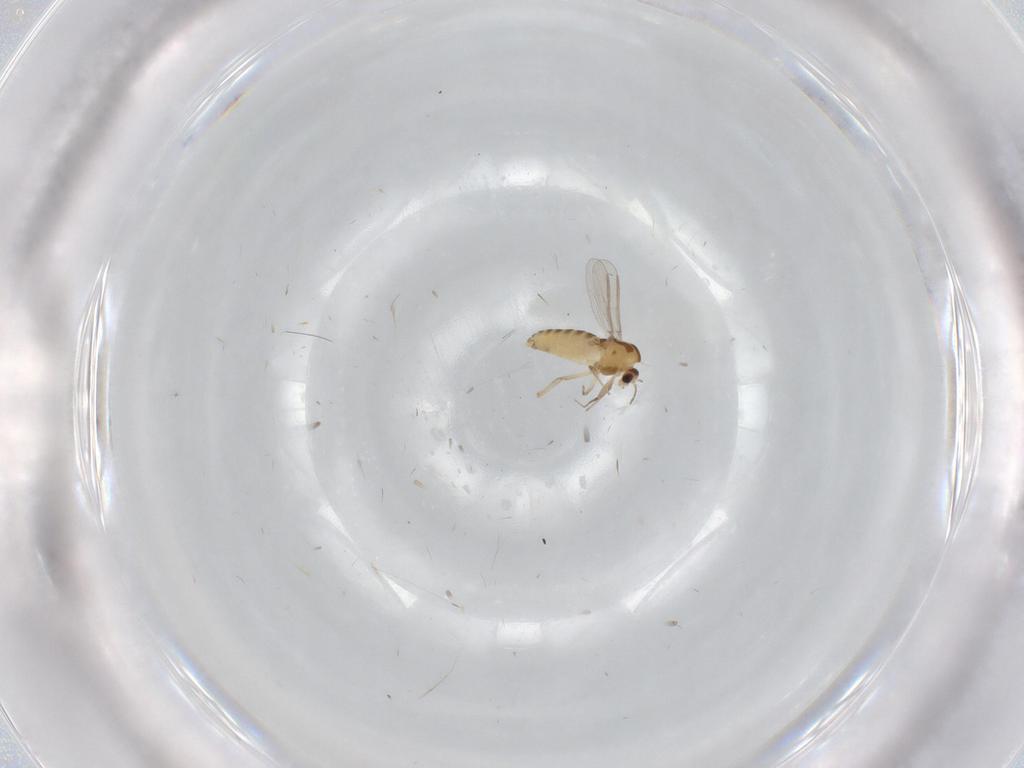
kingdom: Animalia
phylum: Arthropoda
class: Insecta
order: Diptera
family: Chironomidae
